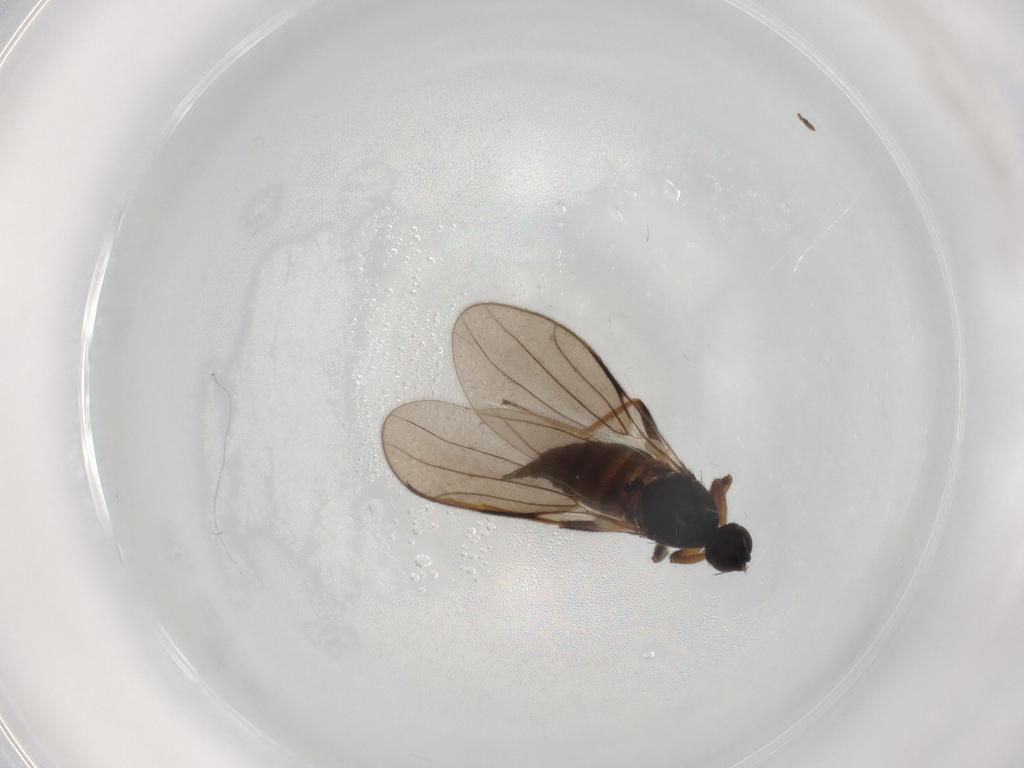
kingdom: Animalia
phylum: Arthropoda
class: Insecta
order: Diptera
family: Hybotidae
